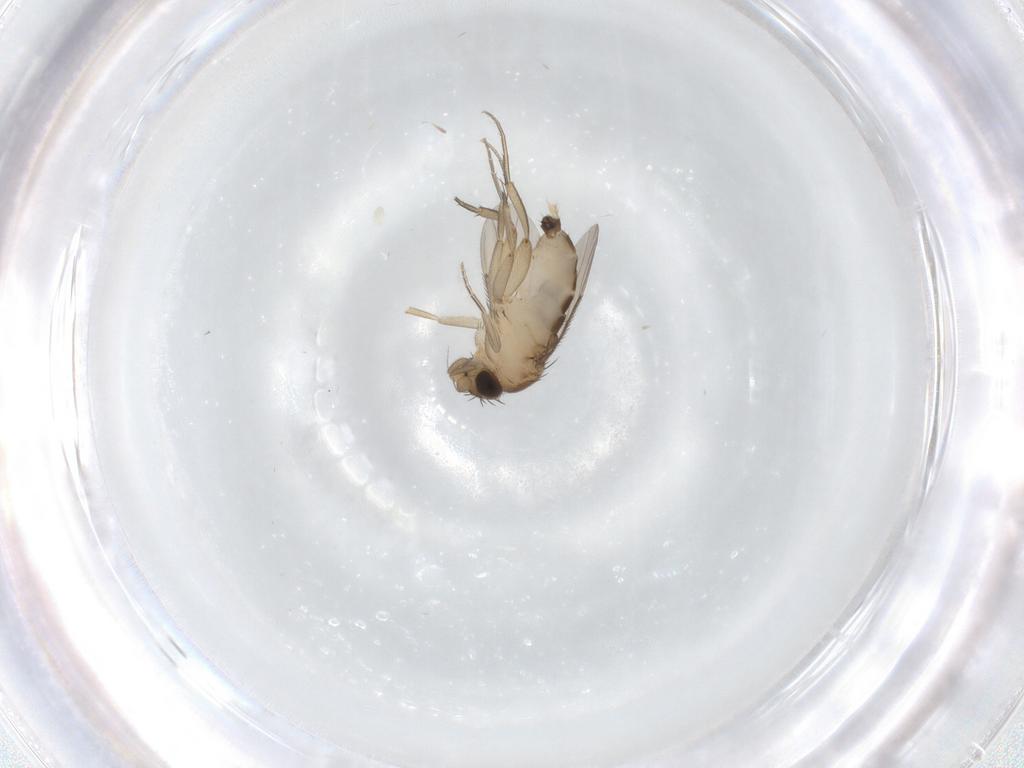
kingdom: Animalia
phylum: Arthropoda
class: Insecta
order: Diptera
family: Phoridae
